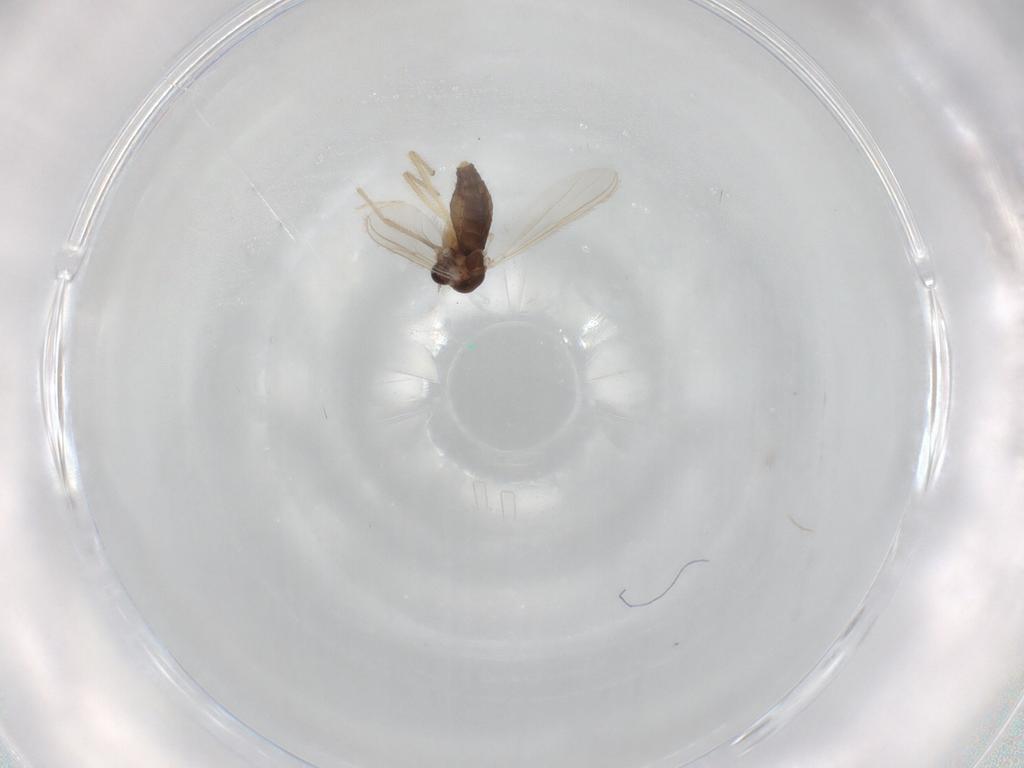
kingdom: Animalia
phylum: Arthropoda
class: Insecta
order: Diptera
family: Chironomidae
